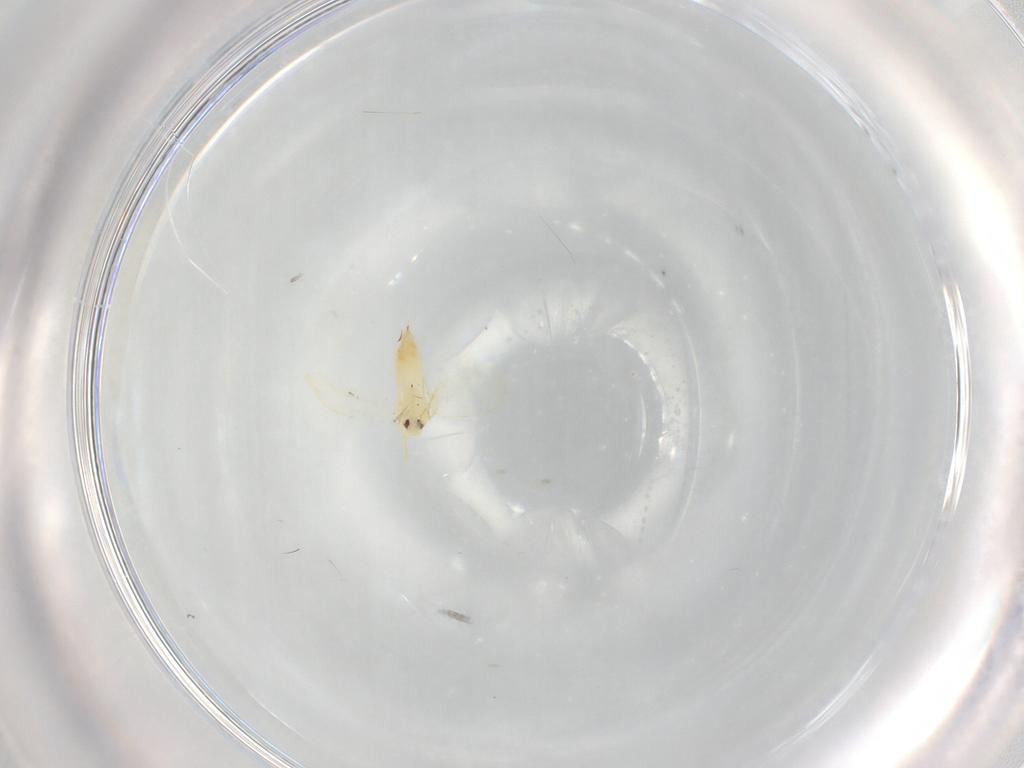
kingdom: Animalia
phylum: Arthropoda
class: Insecta
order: Hemiptera
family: Aleyrodidae
